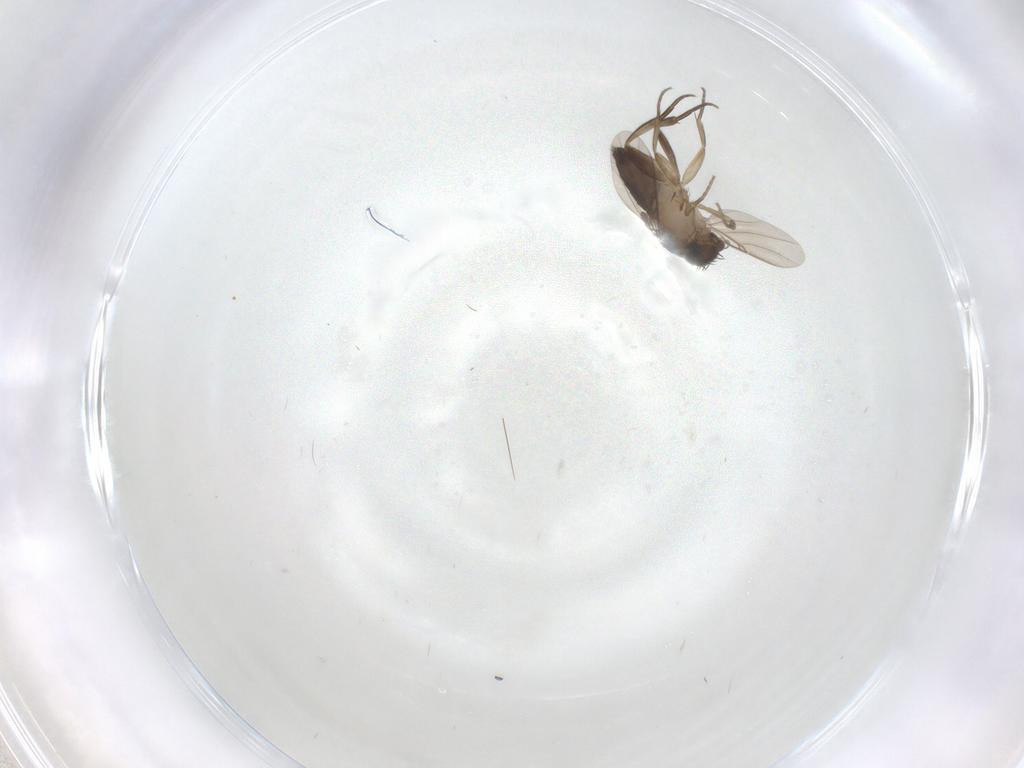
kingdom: Animalia
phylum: Arthropoda
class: Insecta
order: Diptera
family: Phoridae
